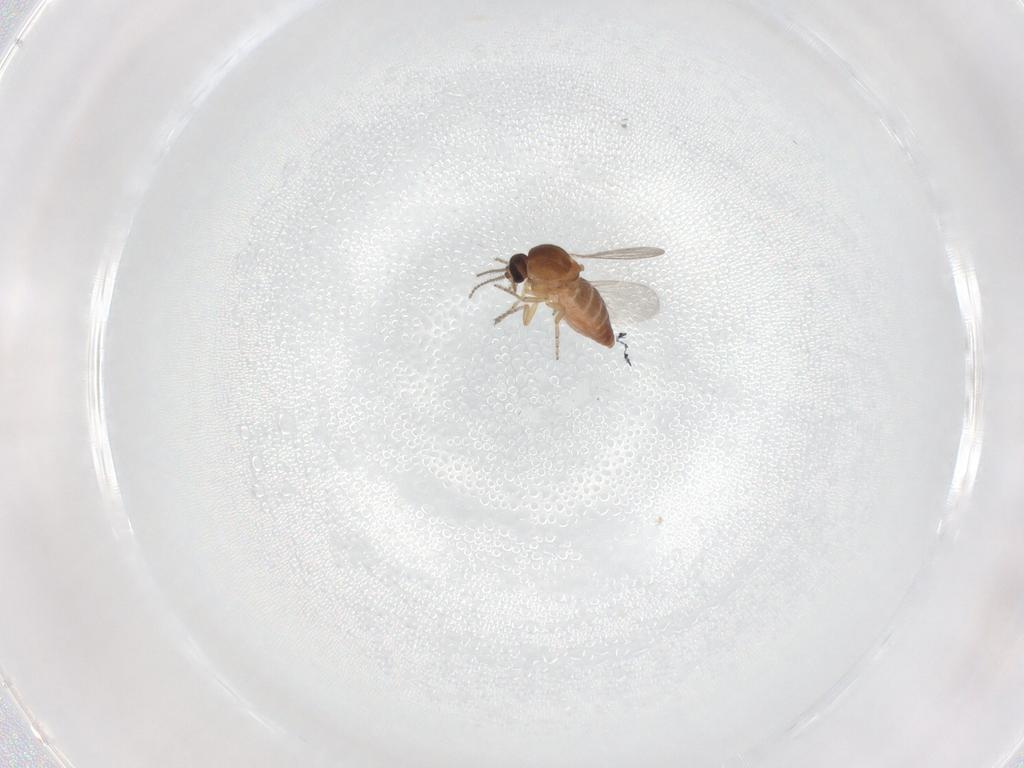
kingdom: Animalia
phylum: Arthropoda
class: Insecta
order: Diptera
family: Ceratopogonidae
